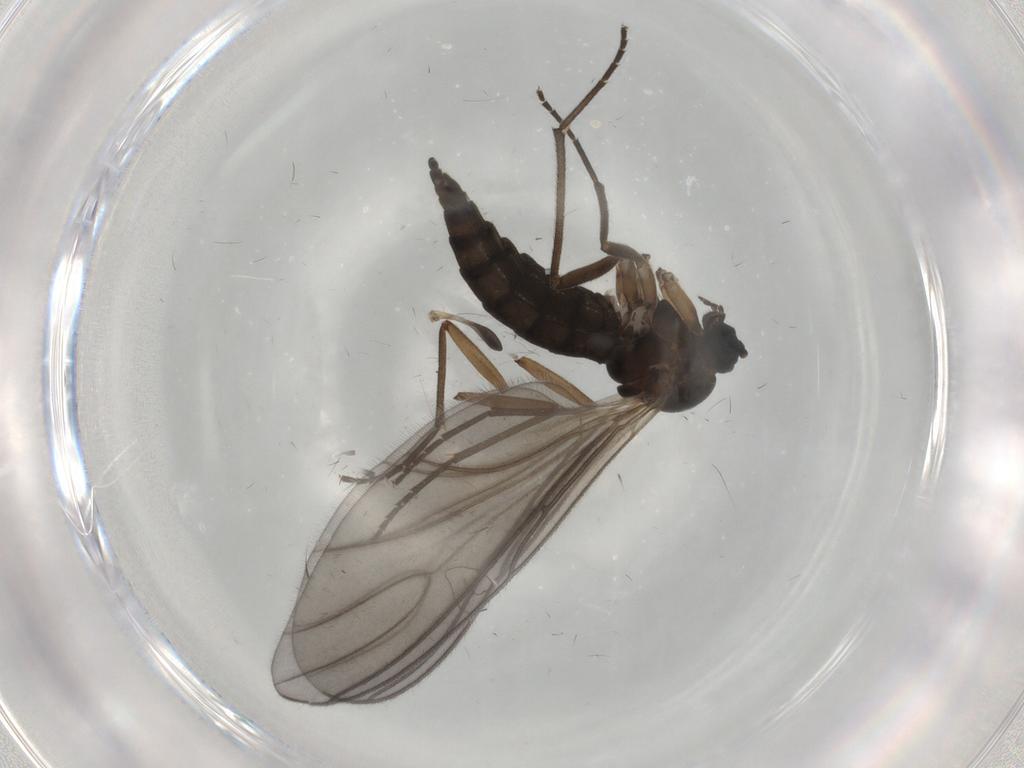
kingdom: Animalia
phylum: Arthropoda
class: Insecta
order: Diptera
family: Sciaridae
